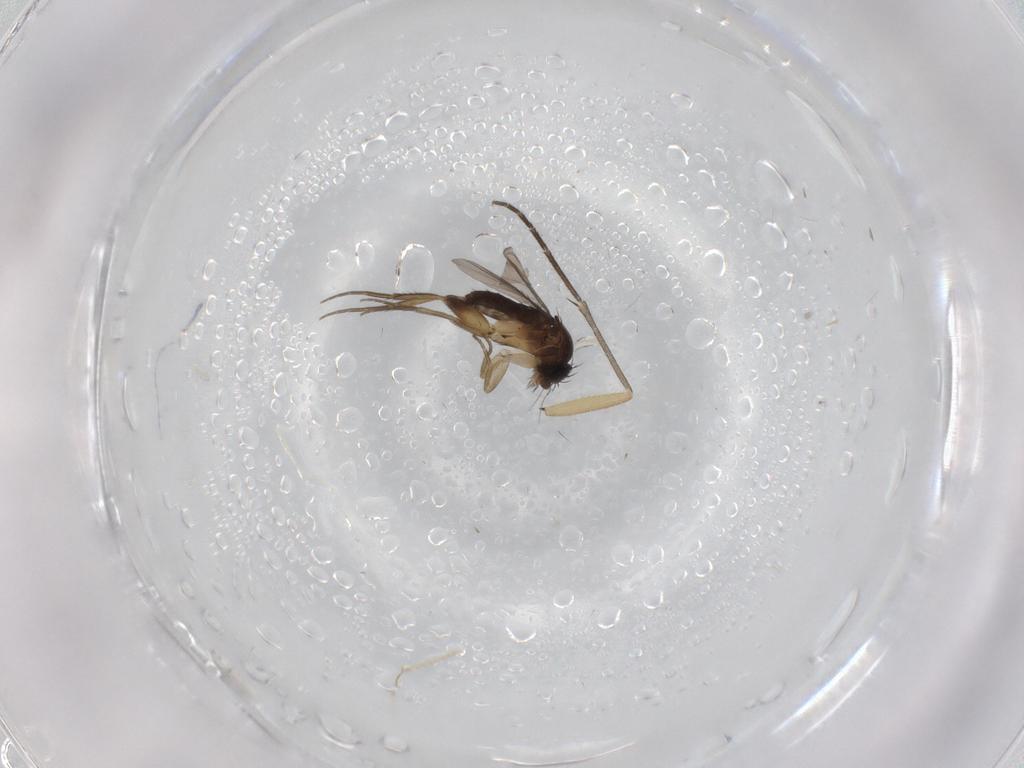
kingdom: Animalia
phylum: Arthropoda
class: Insecta
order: Diptera
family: Phoridae
